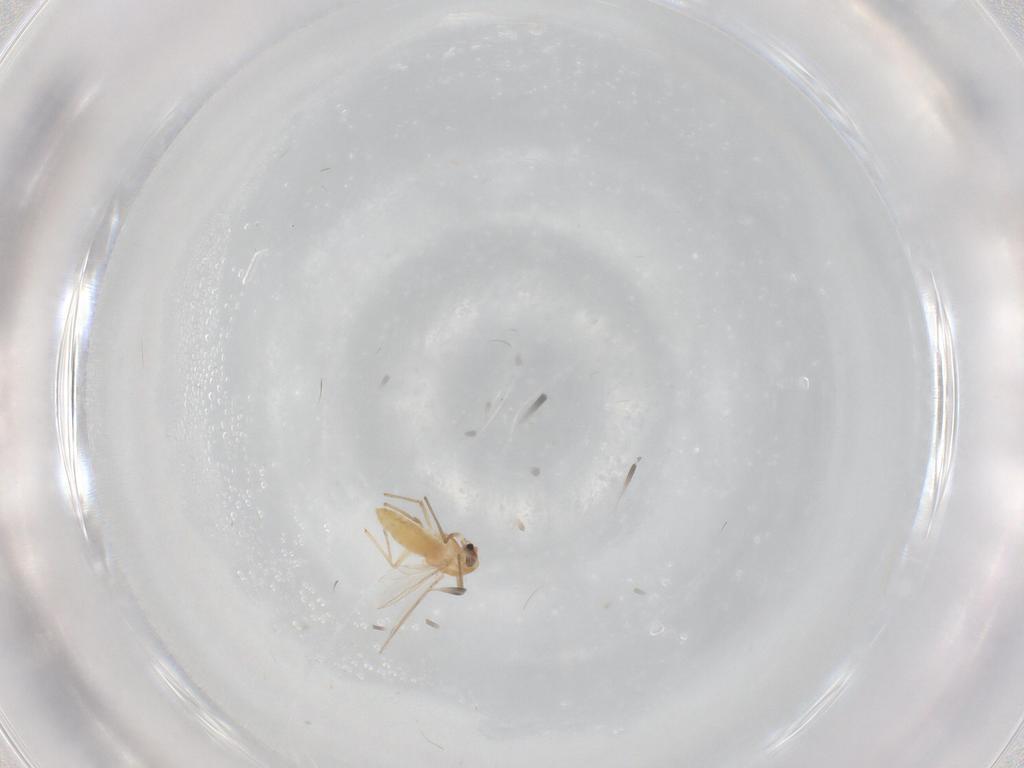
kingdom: Animalia
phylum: Arthropoda
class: Insecta
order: Diptera
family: Chironomidae
